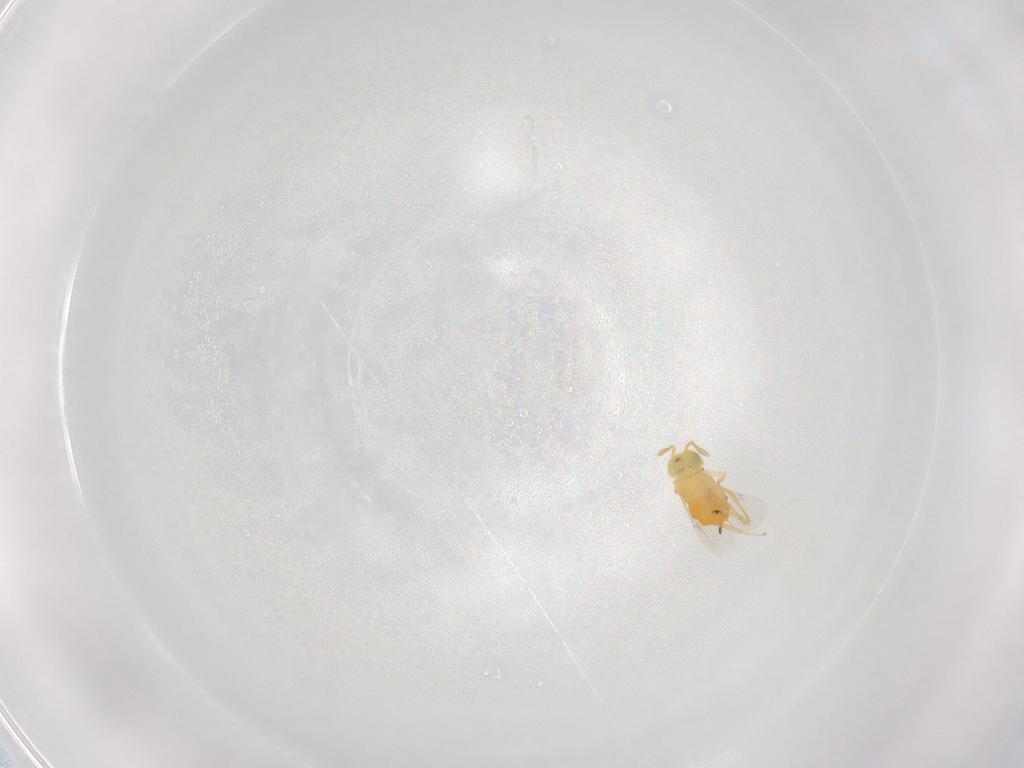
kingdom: Animalia
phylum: Arthropoda
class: Insecta
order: Hymenoptera
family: Encyrtidae
